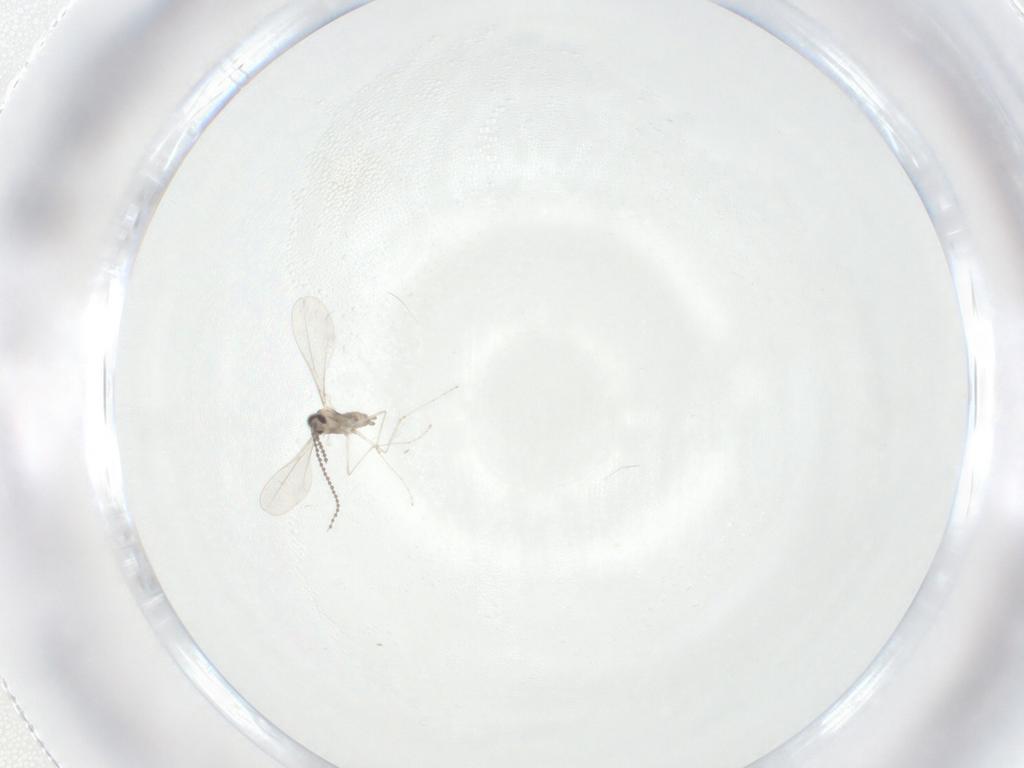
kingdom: Animalia
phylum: Arthropoda
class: Insecta
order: Diptera
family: Cecidomyiidae
